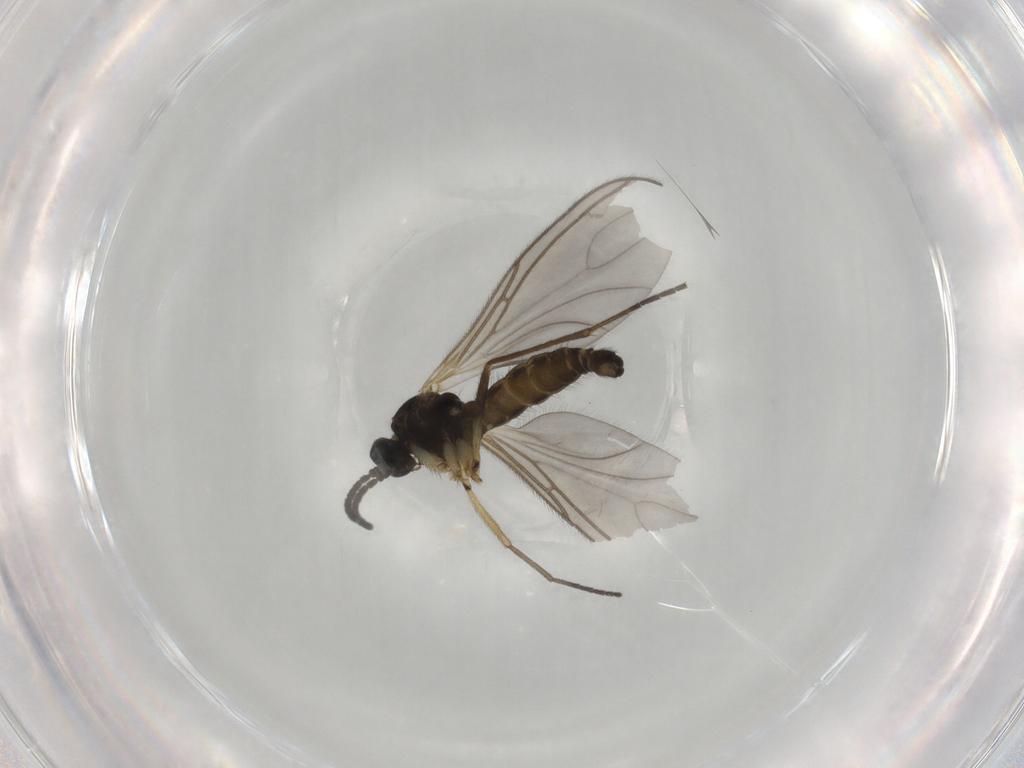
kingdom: Animalia
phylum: Arthropoda
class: Insecta
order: Diptera
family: Sciaridae
